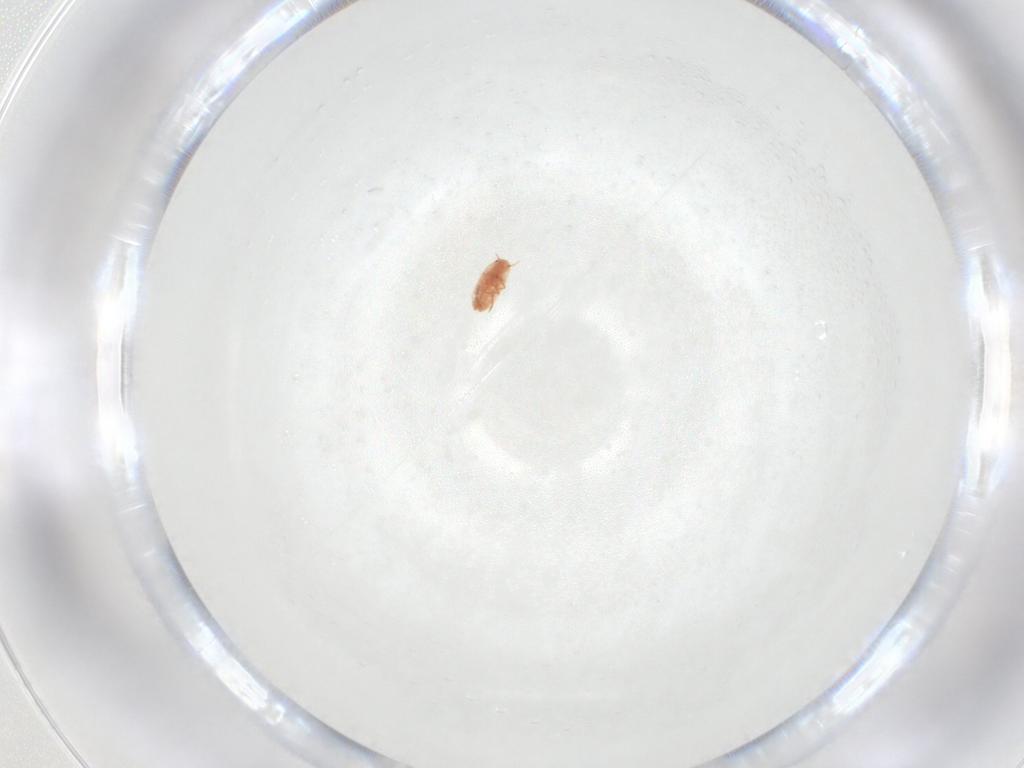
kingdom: Animalia
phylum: Arthropoda
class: Insecta
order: Hemiptera
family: Coccidae
